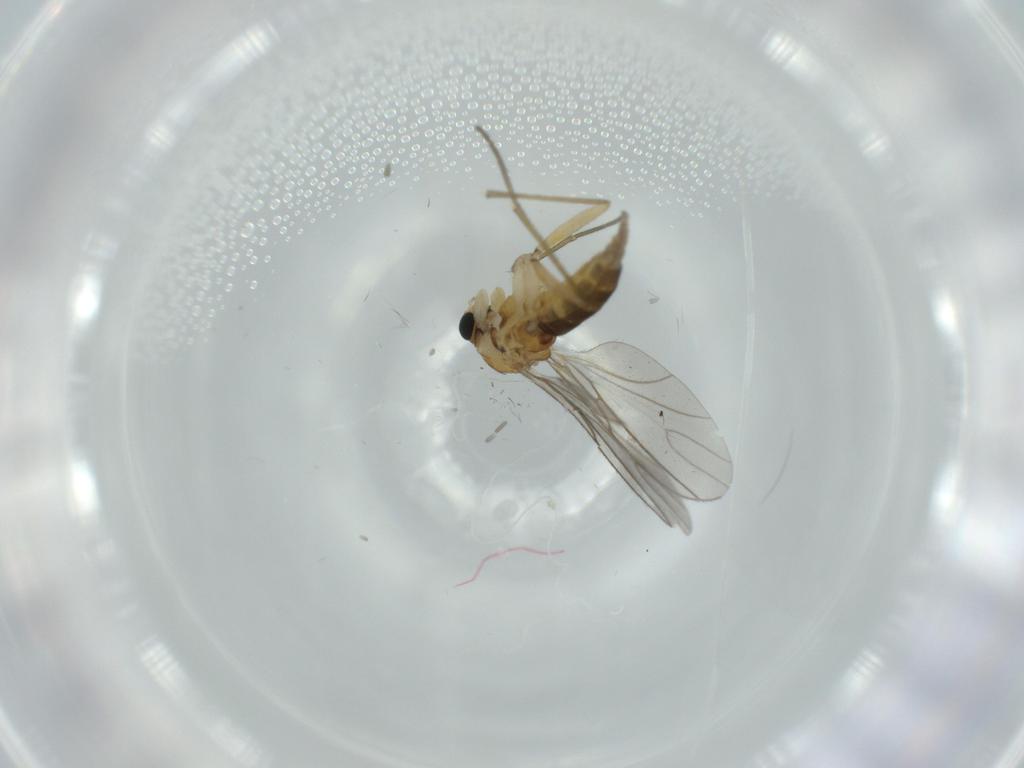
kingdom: Animalia
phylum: Arthropoda
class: Insecta
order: Diptera
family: Sciaridae
